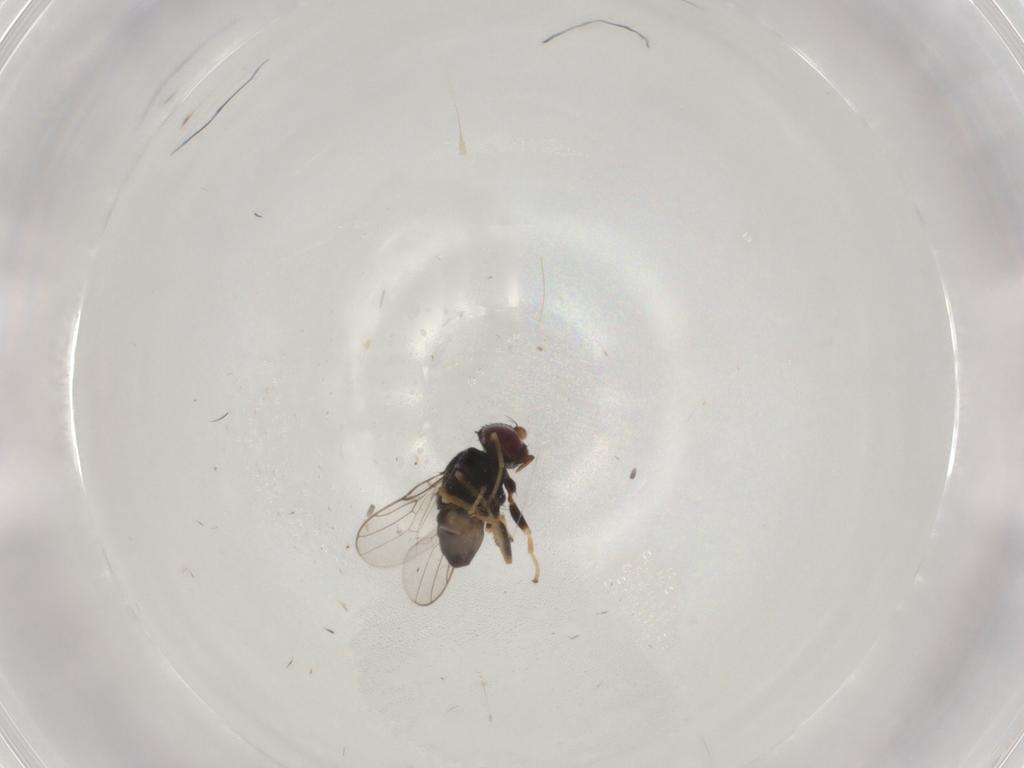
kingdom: Animalia
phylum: Arthropoda
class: Insecta
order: Diptera
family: Chloropidae
